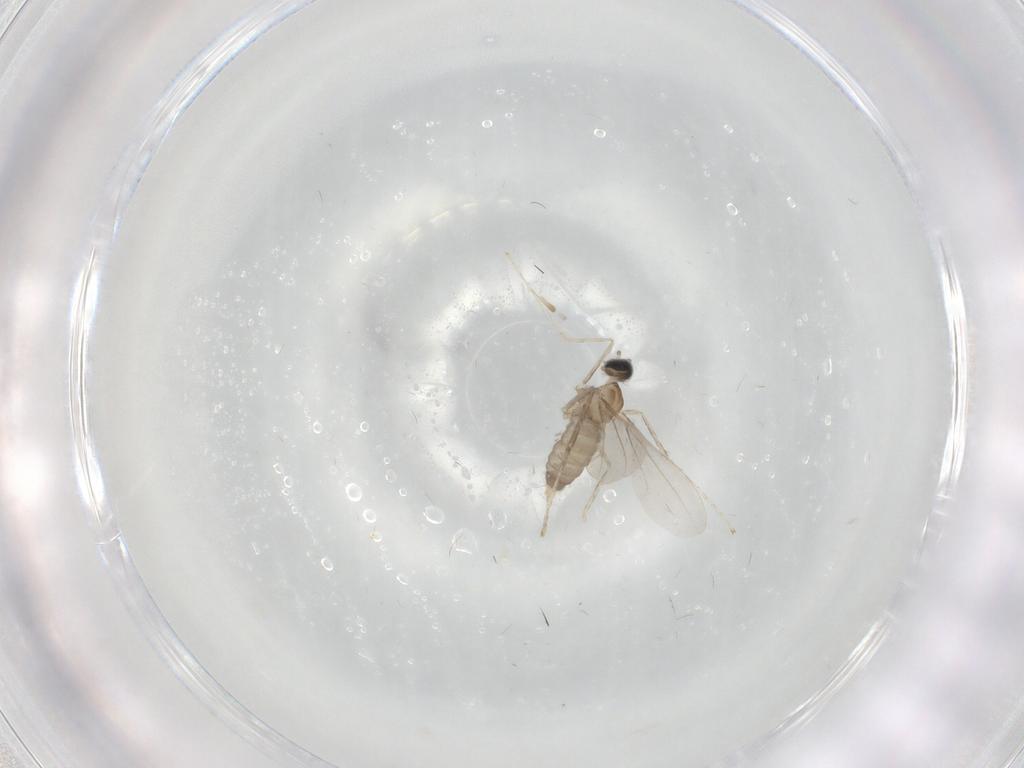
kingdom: Animalia
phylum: Arthropoda
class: Insecta
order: Diptera
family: Cecidomyiidae
